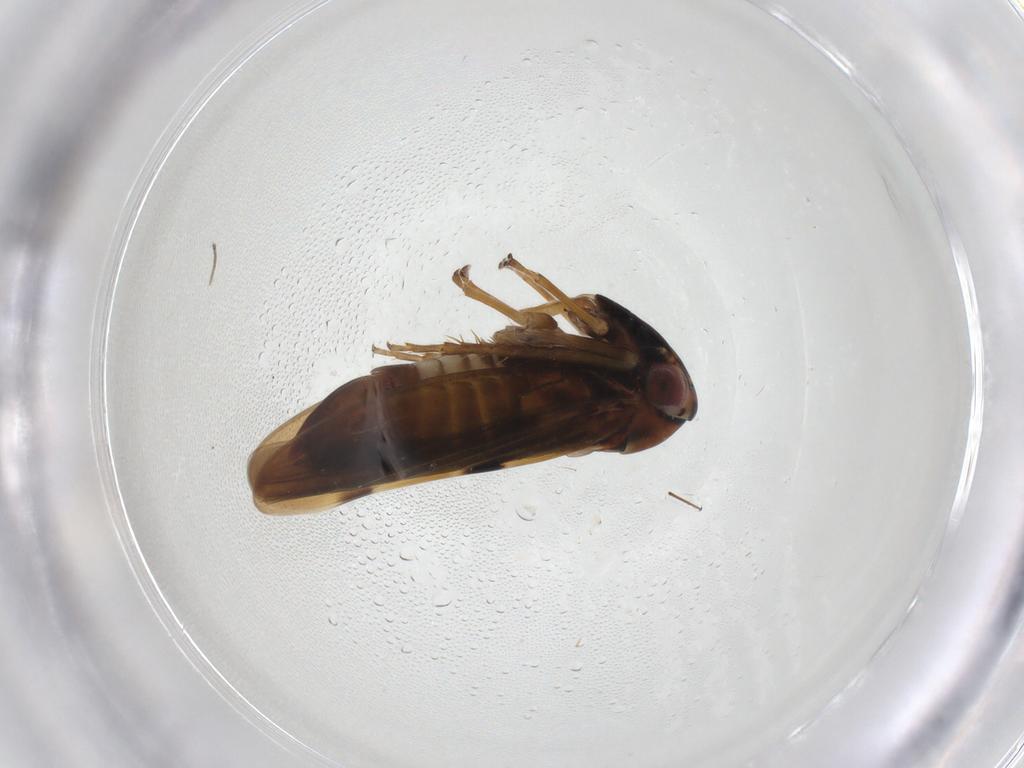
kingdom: Animalia
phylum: Arthropoda
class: Insecta
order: Hemiptera
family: Cicadellidae
